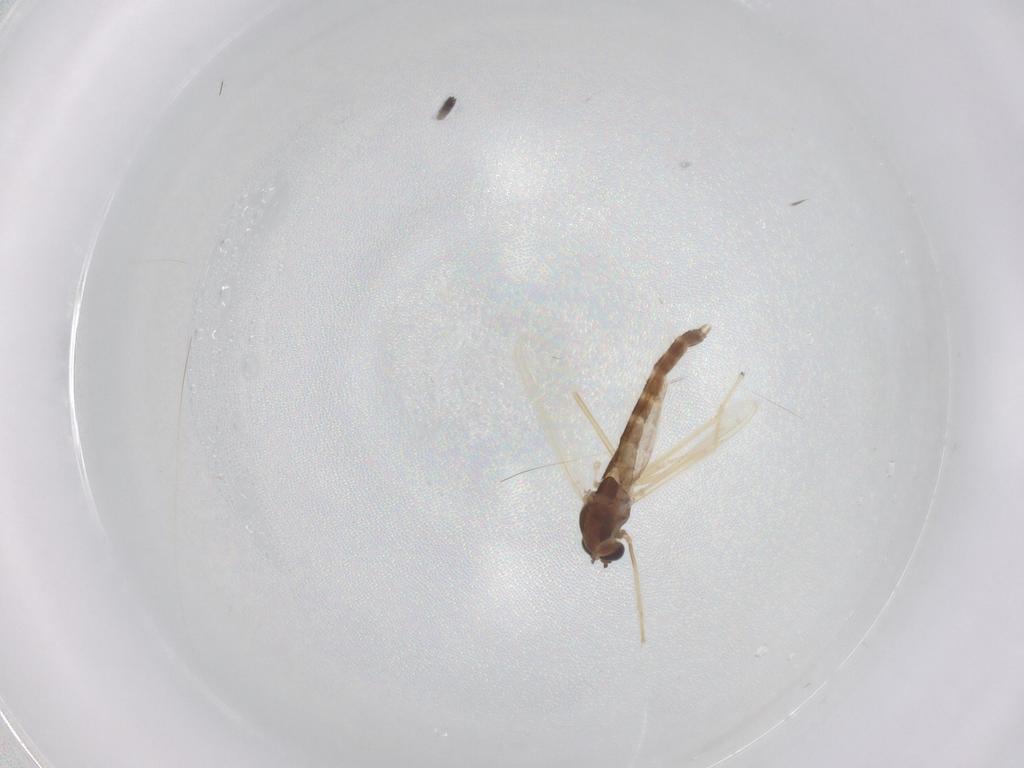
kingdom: Animalia
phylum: Arthropoda
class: Insecta
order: Diptera
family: Chironomidae
